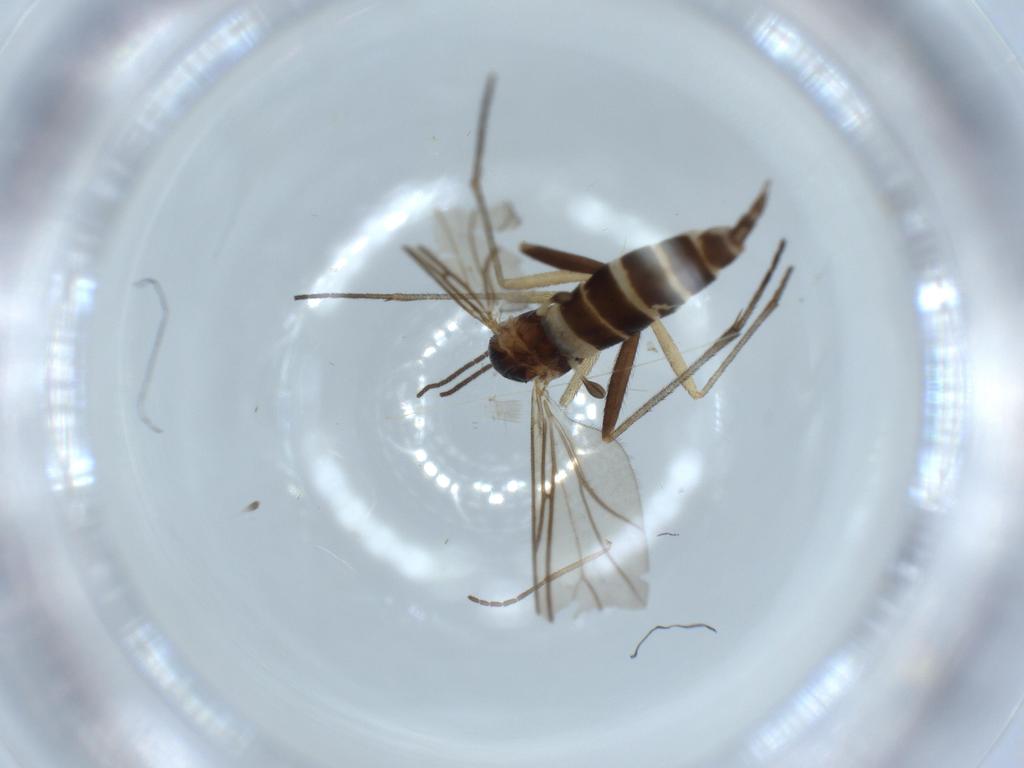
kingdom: Animalia
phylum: Arthropoda
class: Insecta
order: Diptera
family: Sciaridae
